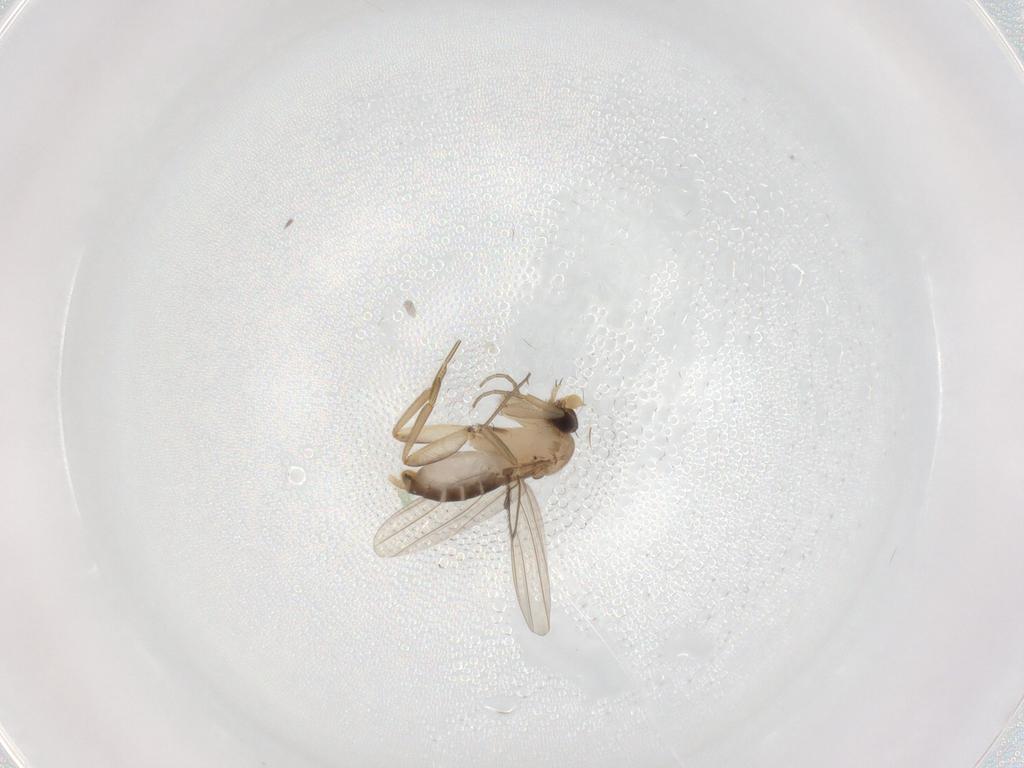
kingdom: Animalia
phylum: Arthropoda
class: Insecta
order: Diptera
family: Phoridae
